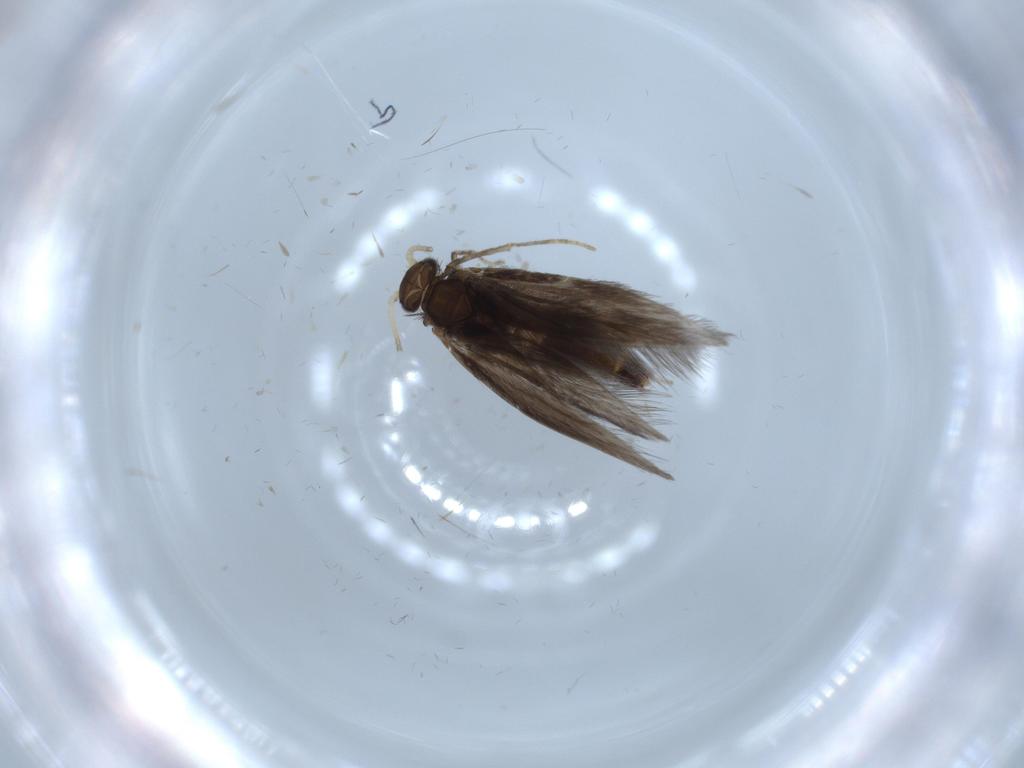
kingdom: Animalia
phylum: Arthropoda
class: Insecta
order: Trichoptera
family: Hydroptilidae
